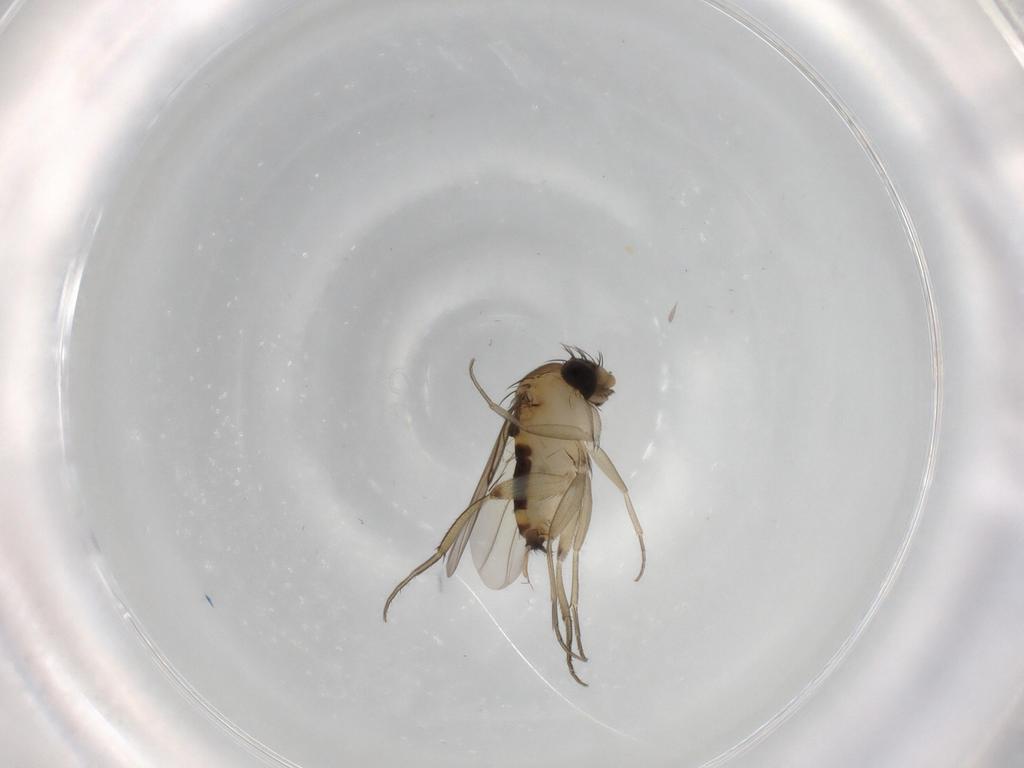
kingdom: Animalia
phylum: Arthropoda
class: Insecta
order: Diptera
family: Phoridae
